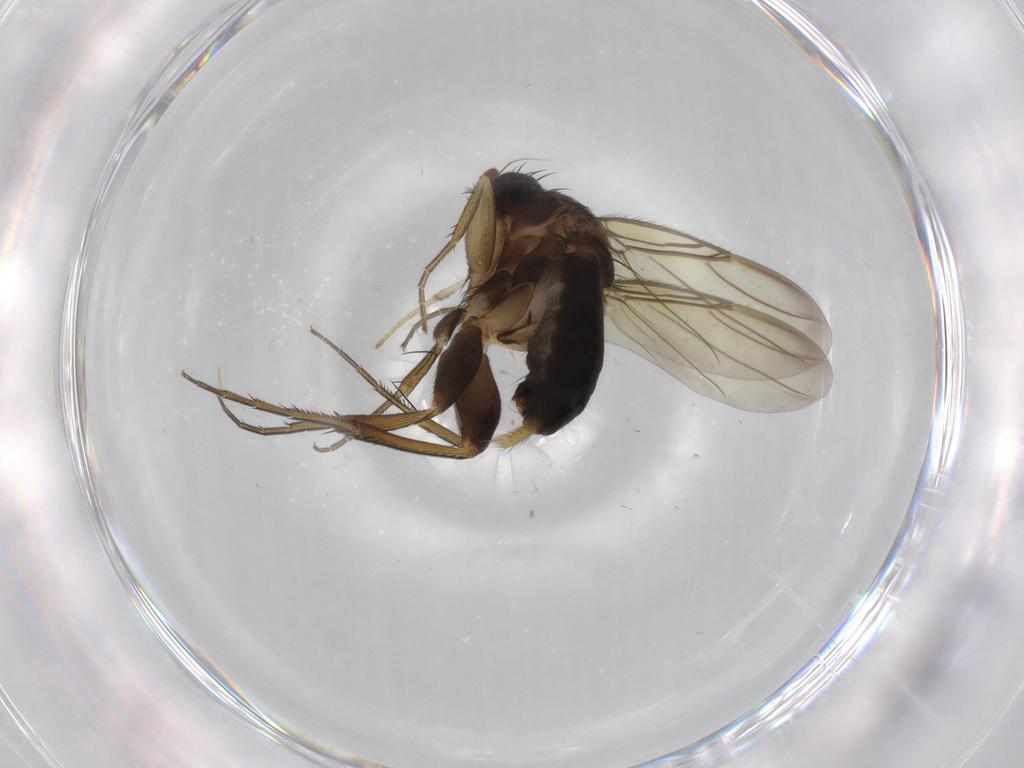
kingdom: Animalia
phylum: Arthropoda
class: Insecta
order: Diptera
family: Psychodidae
